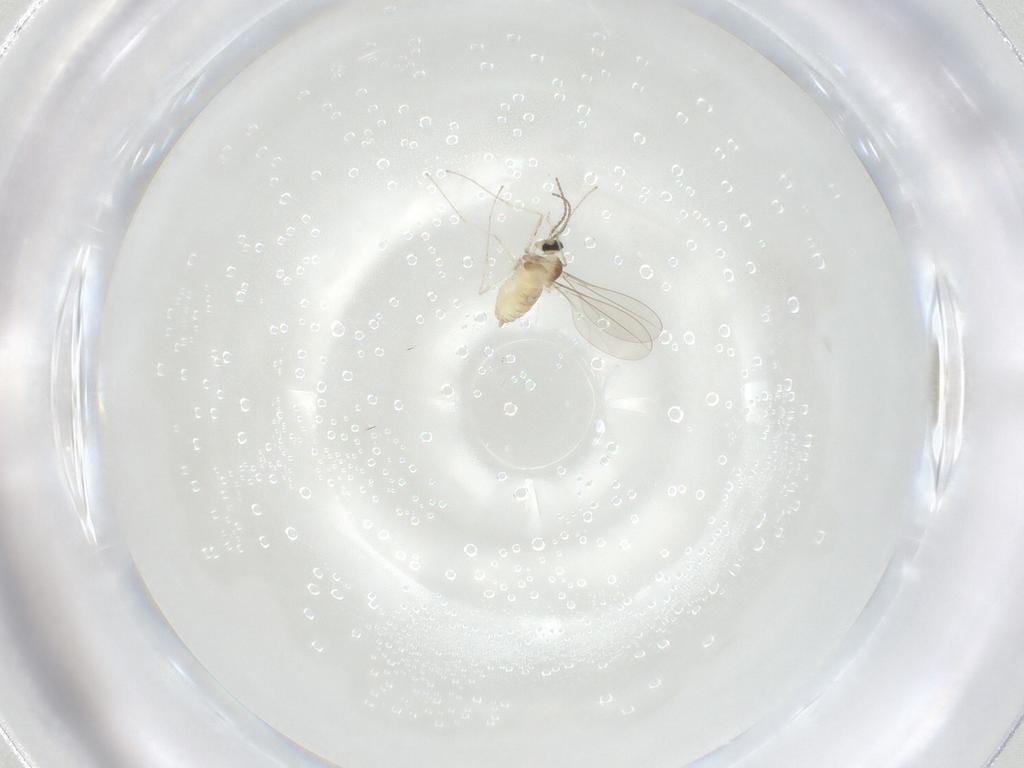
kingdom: Animalia
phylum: Arthropoda
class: Insecta
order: Diptera
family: Cecidomyiidae
